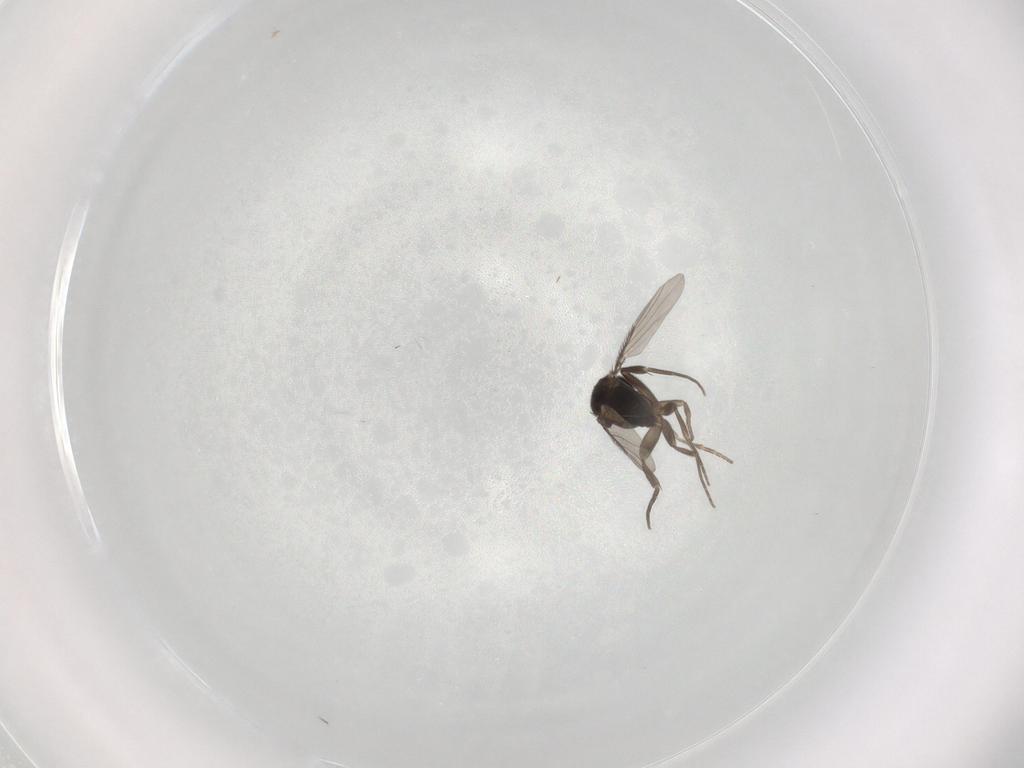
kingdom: Animalia
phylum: Arthropoda
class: Insecta
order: Diptera
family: Phoridae
